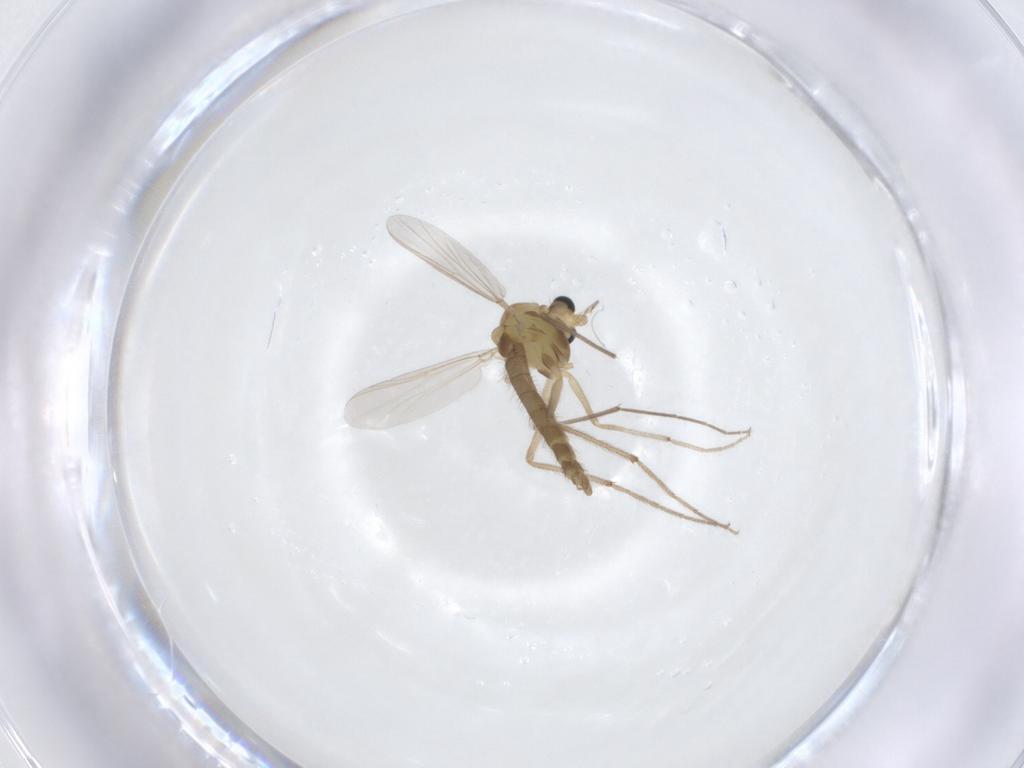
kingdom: Animalia
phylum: Arthropoda
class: Insecta
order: Diptera
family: Chironomidae
